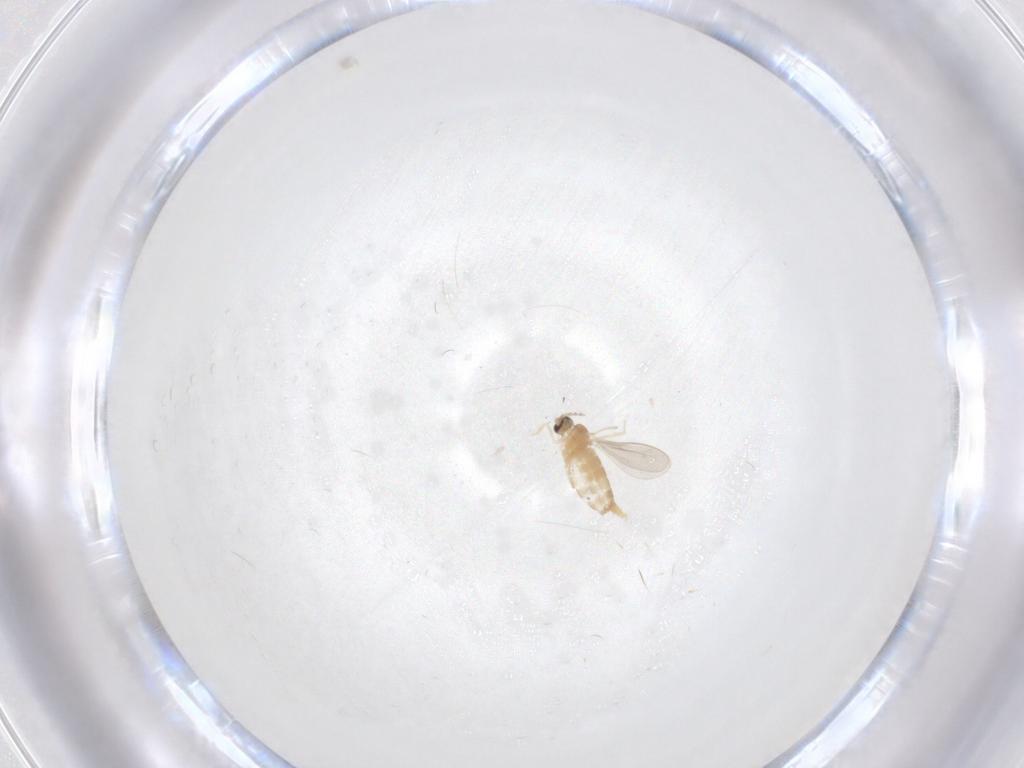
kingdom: Animalia
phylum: Arthropoda
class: Insecta
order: Diptera
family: Cecidomyiidae
